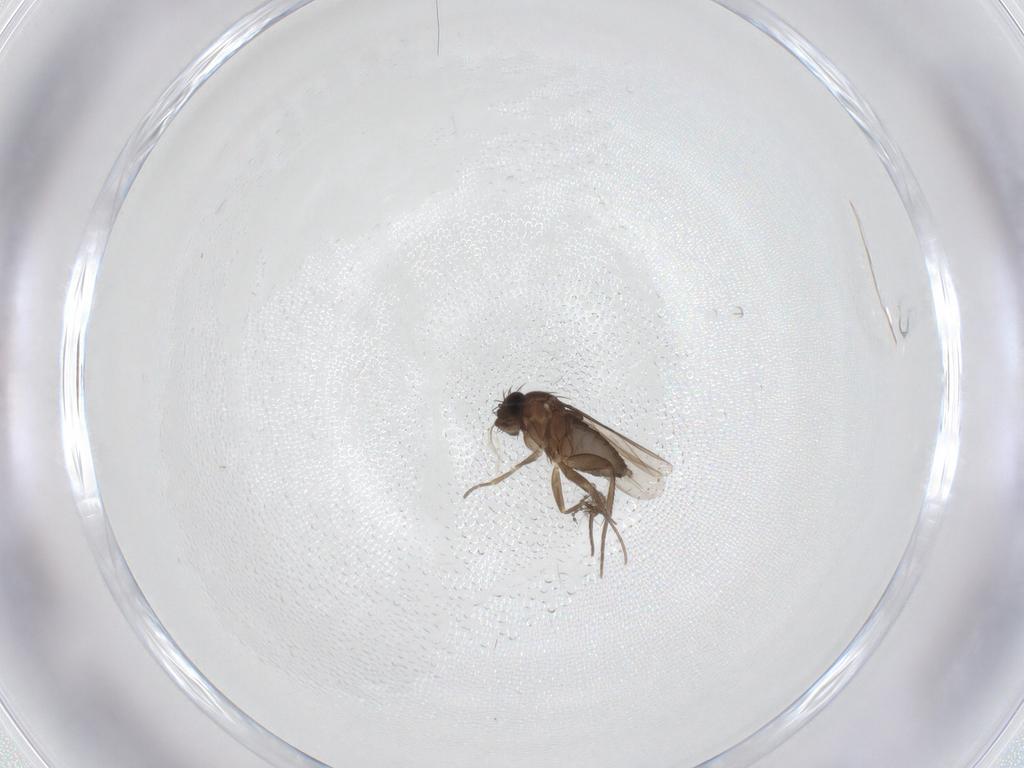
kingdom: Animalia
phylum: Arthropoda
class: Insecta
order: Diptera
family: Phoridae
